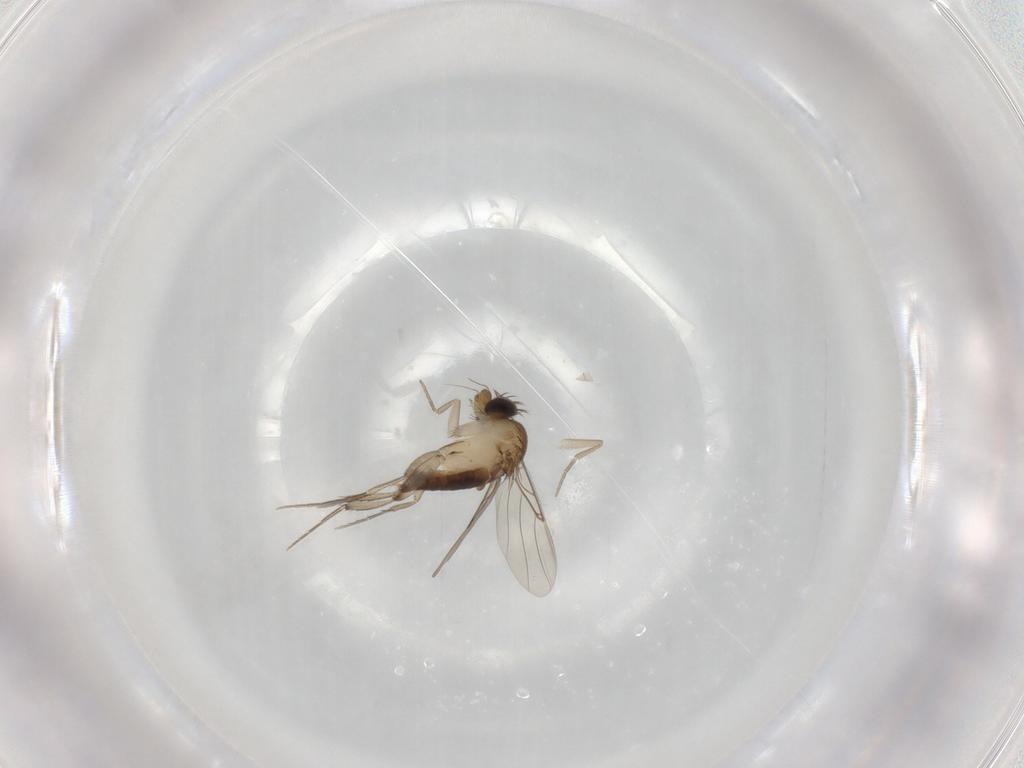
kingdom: Animalia
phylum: Arthropoda
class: Insecta
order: Diptera
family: Phoridae
